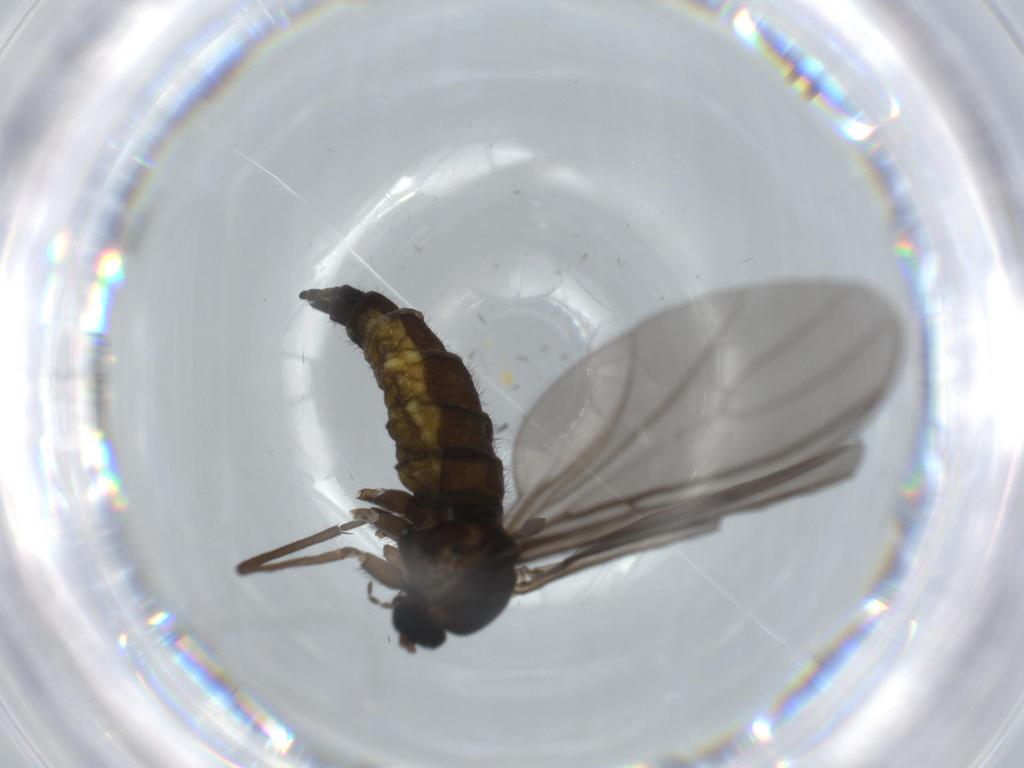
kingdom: Animalia
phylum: Arthropoda
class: Insecta
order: Diptera
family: Sciaridae
